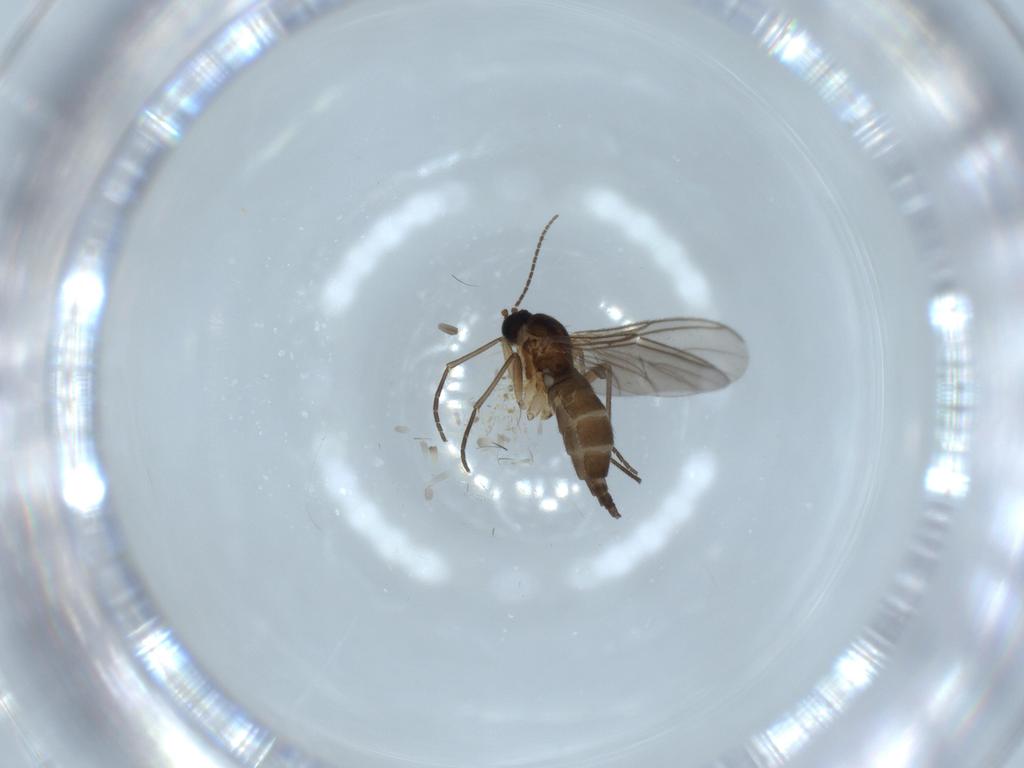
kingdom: Animalia
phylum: Arthropoda
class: Insecta
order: Diptera
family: Sciaridae
